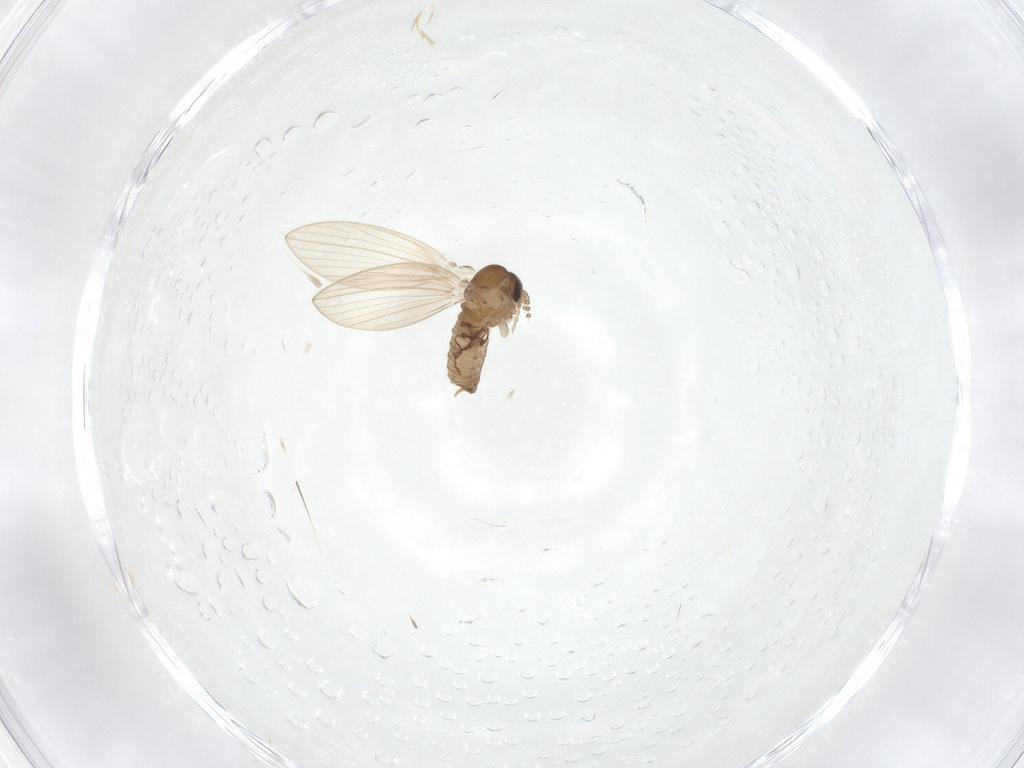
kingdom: Animalia
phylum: Arthropoda
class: Insecta
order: Diptera
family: Psychodidae
